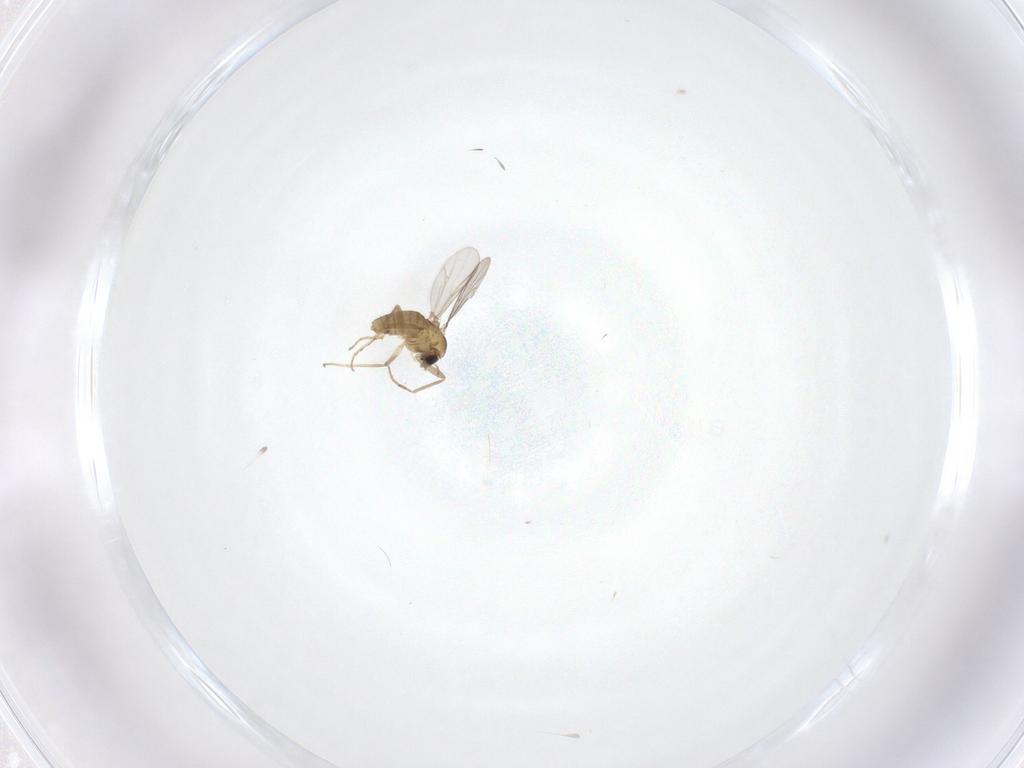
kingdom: Animalia
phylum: Arthropoda
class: Insecta
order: Diptera
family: Chironomidae
